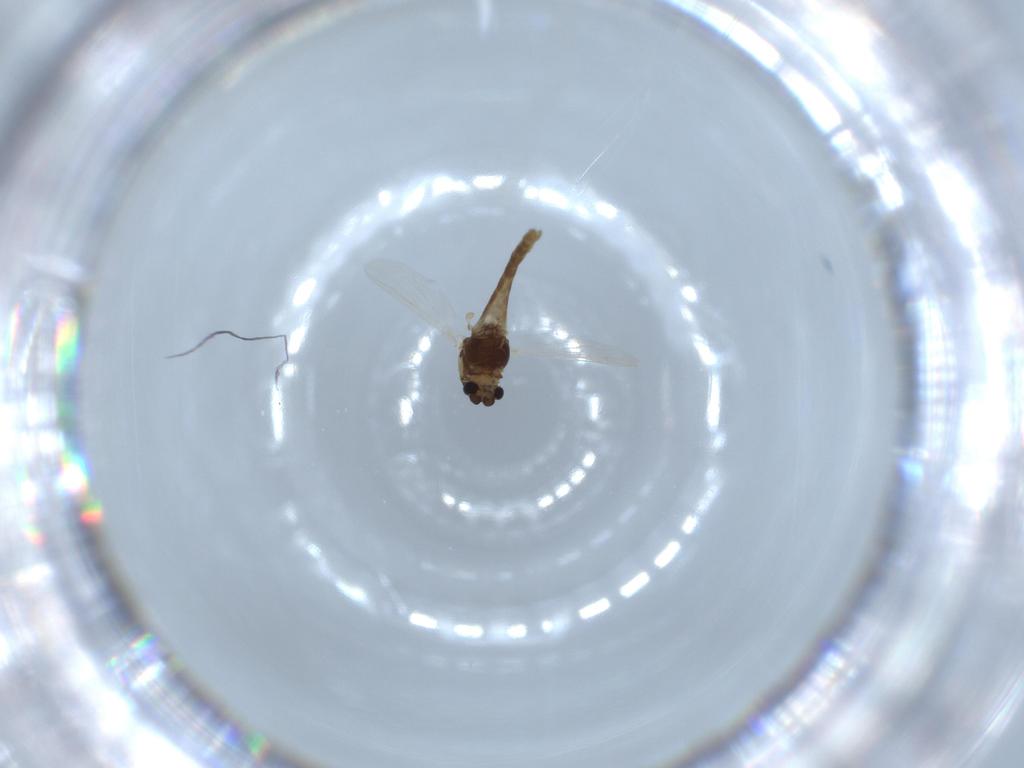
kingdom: Animalia
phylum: Arthropoda
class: Insecta
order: Diptera
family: Chironomidae
